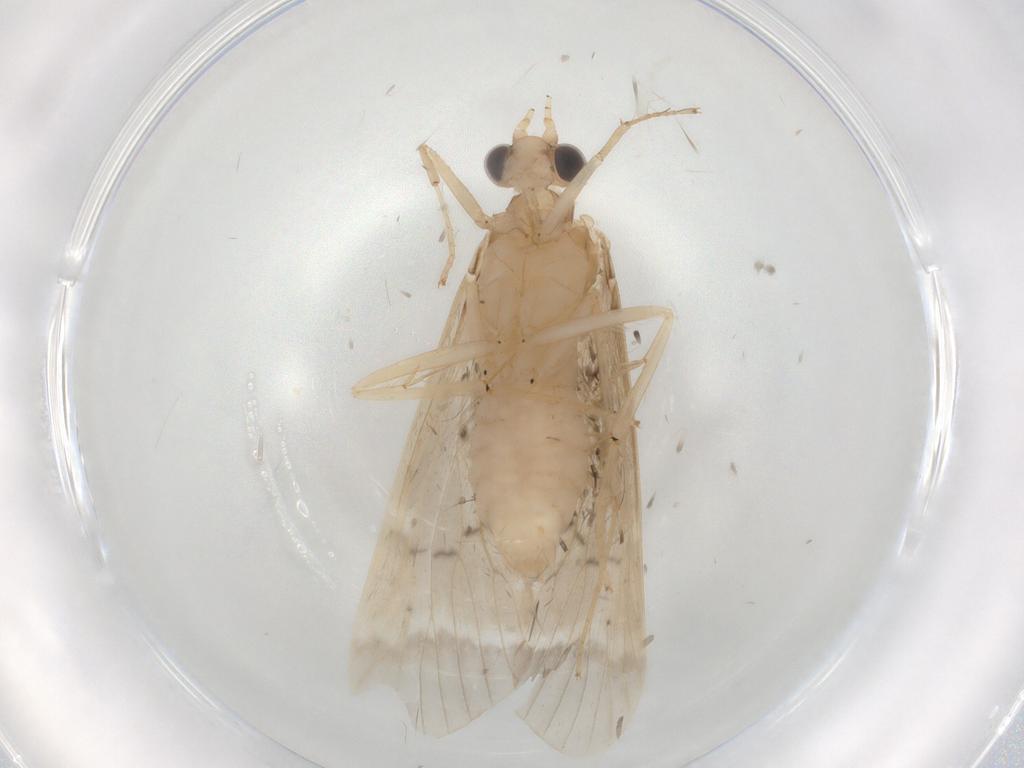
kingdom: Animalia
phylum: Arthropoda
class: Insecta
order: Trichoptera
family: Hydropsychidae
